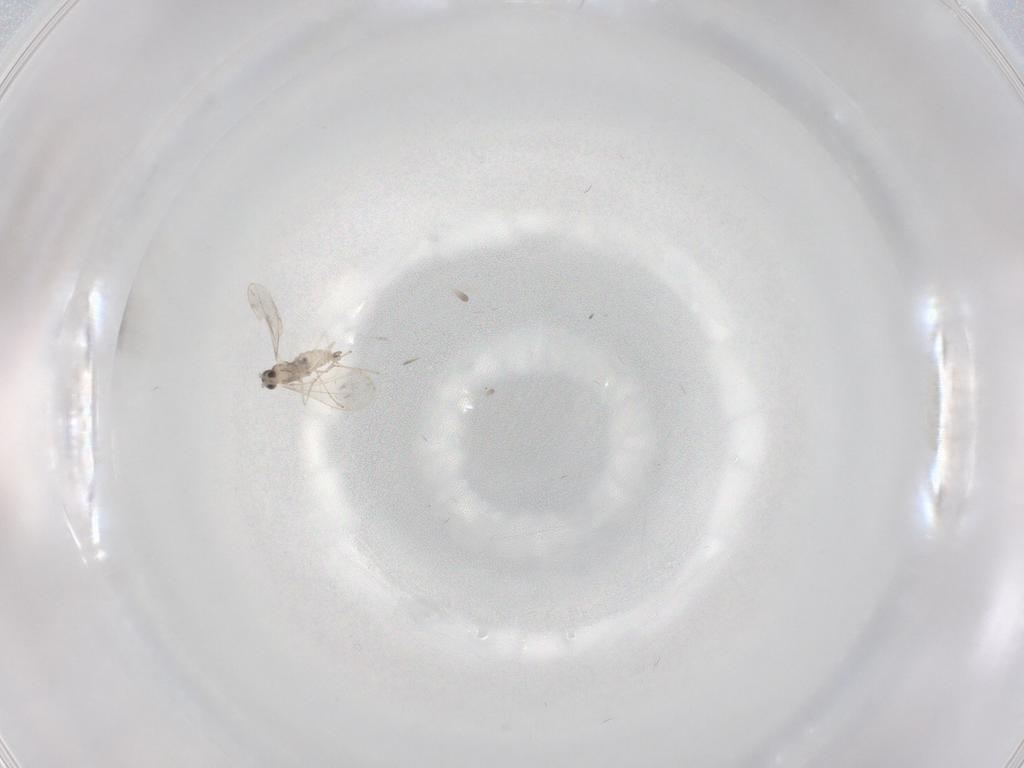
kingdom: Animalia
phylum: Arthropoda
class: Insecta
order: Diptera
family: Cecidomyiidae
